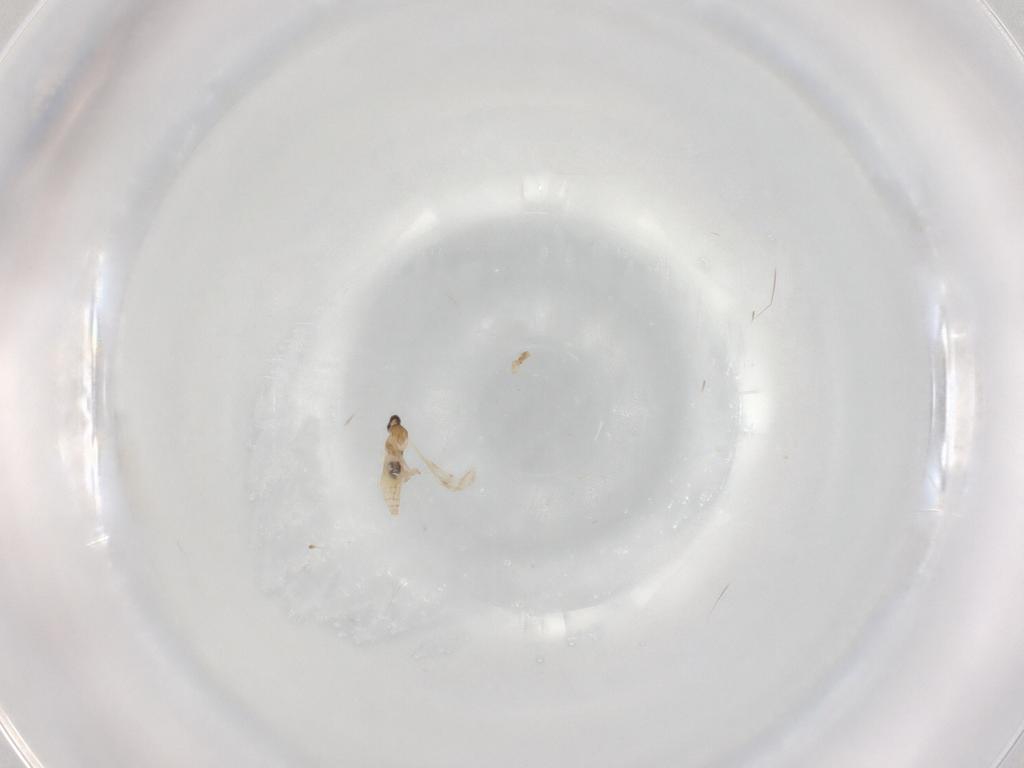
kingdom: Animalia
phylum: Arthropoda
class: Insecta
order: Diptera
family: Cecidomyiidae
